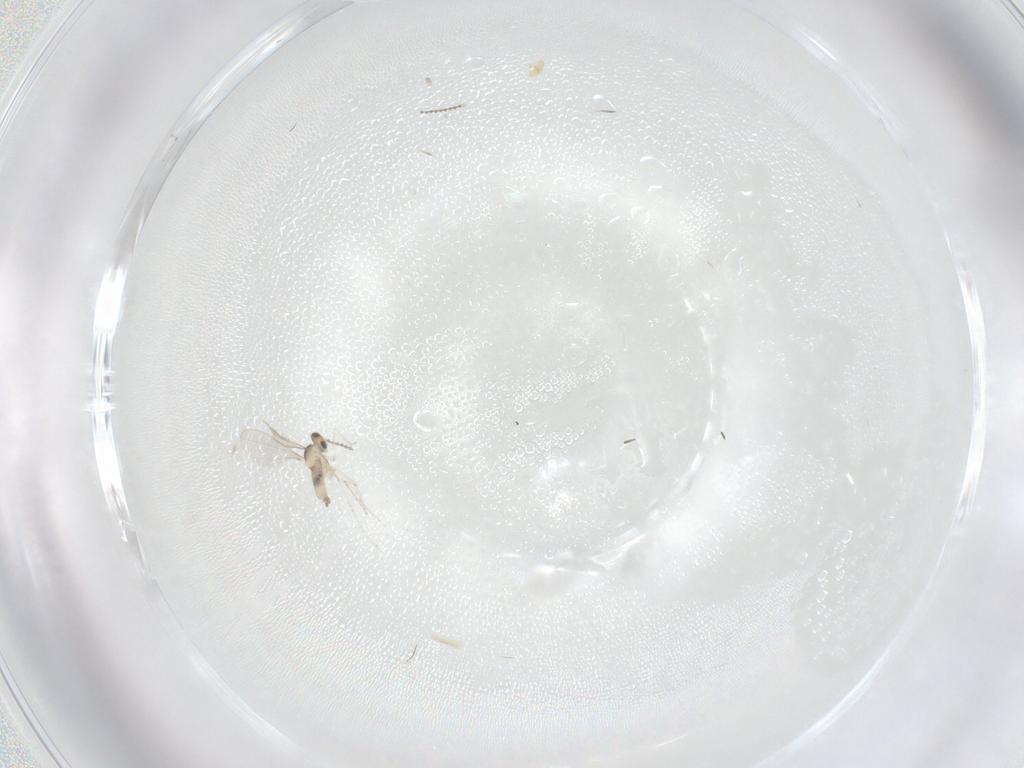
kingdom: Animalia
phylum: Arthropoda
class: Insecta
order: Diptera
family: Cecidomyiidae
